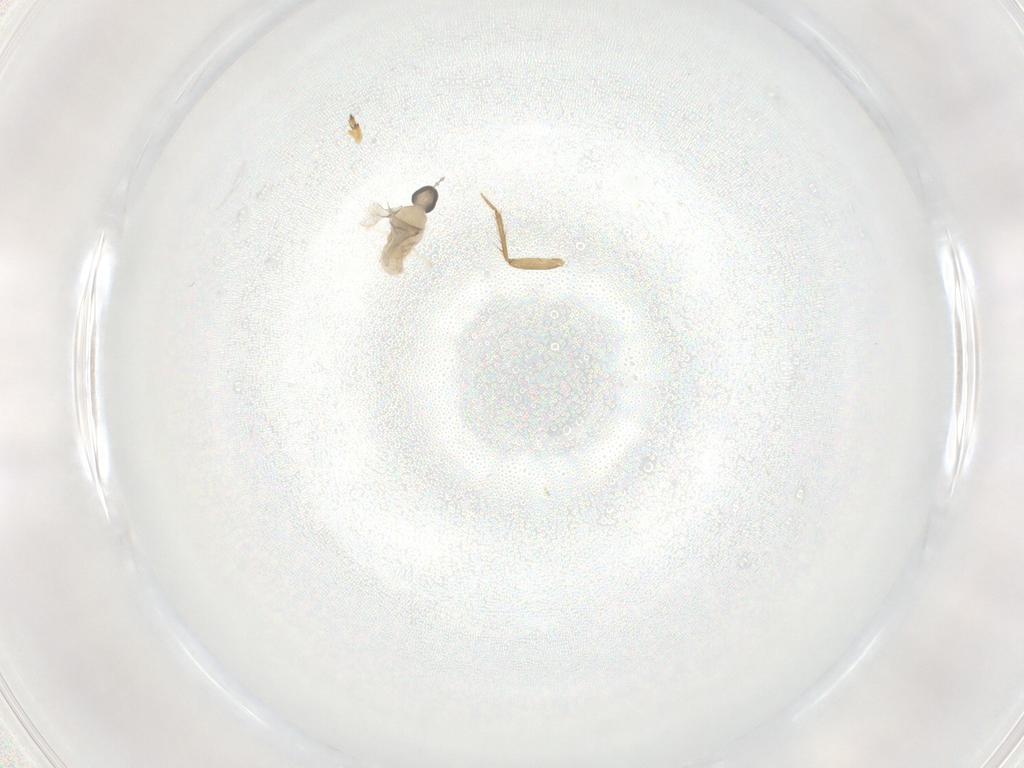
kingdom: Animalia
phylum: Arthropoda
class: Insecta
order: Diptera
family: Cecidomyiidae
